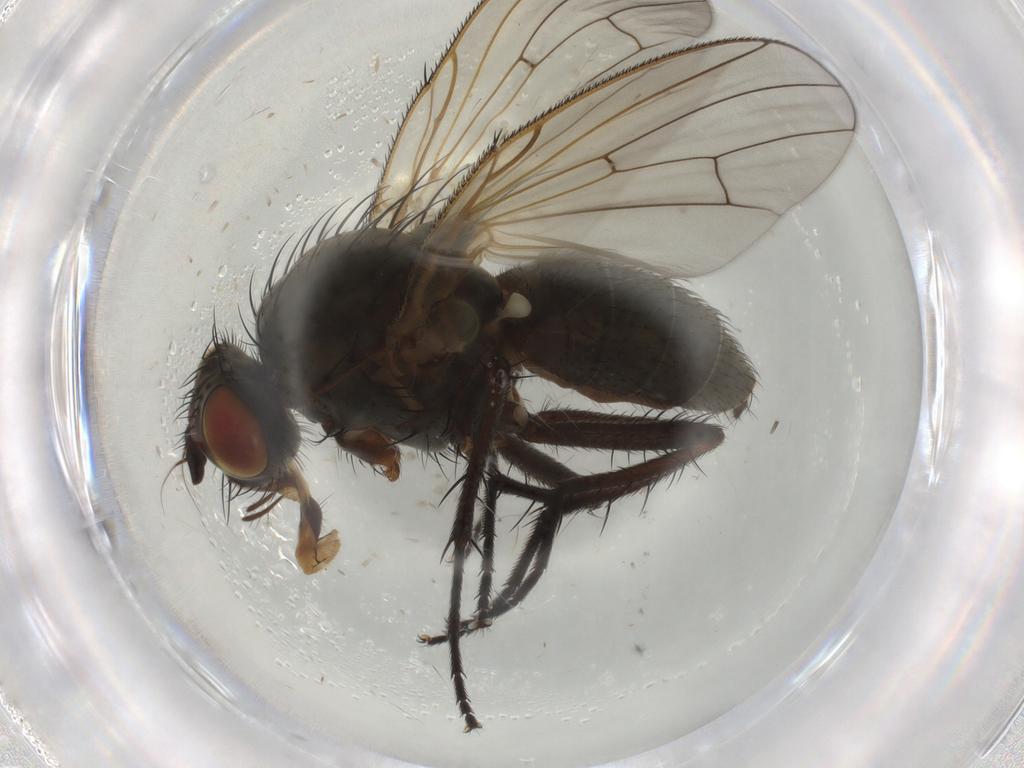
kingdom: Animalia
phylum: Arthropoda
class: Insecta
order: Diptera
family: Anthomyiidae
